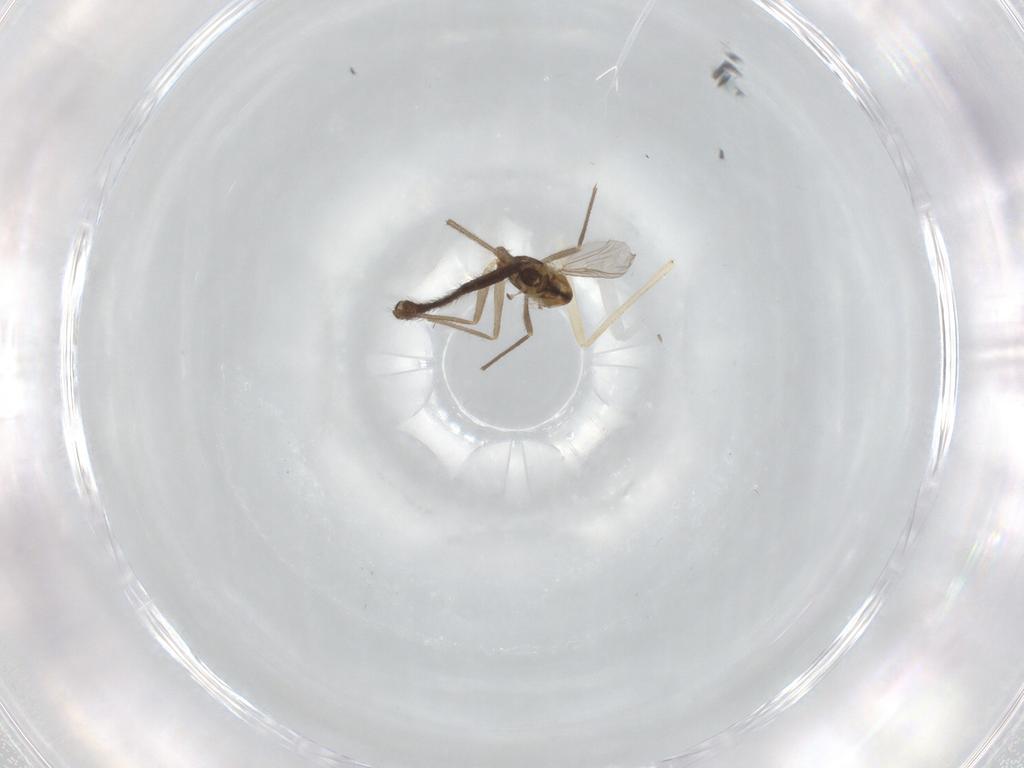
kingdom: Animalia
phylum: Arthropoda
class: Insecta
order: Diptera
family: Chironomidae
